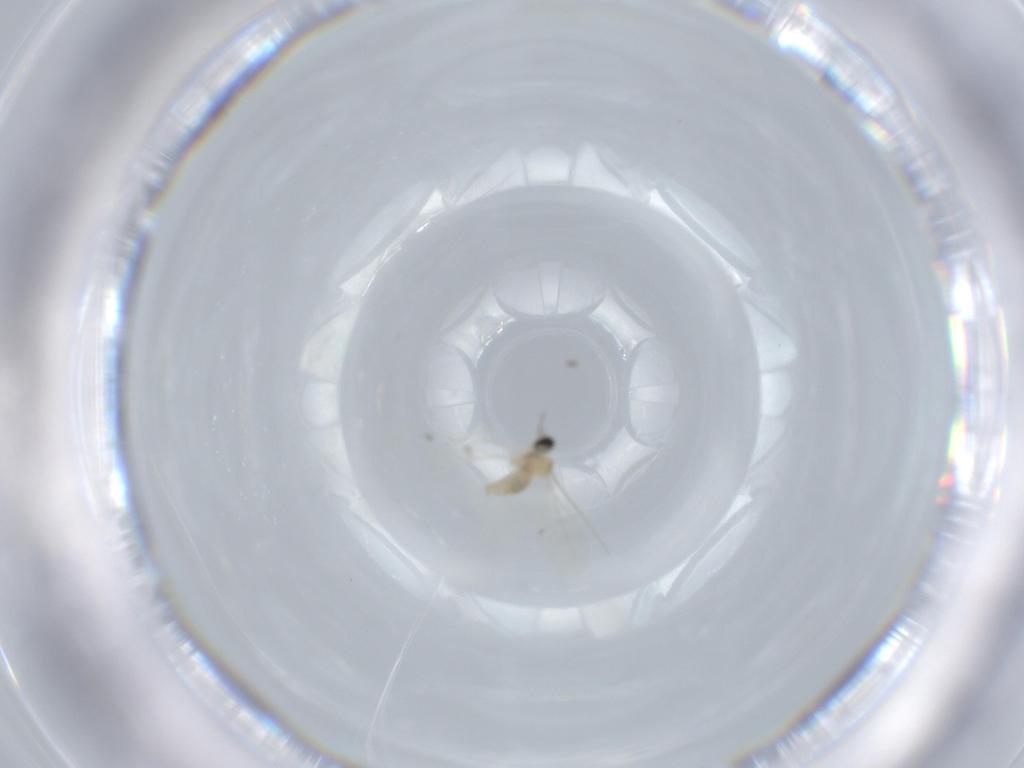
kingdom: Animalia
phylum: Arthropoda
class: Insecta
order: Diptera
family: Cecidomyiidae
